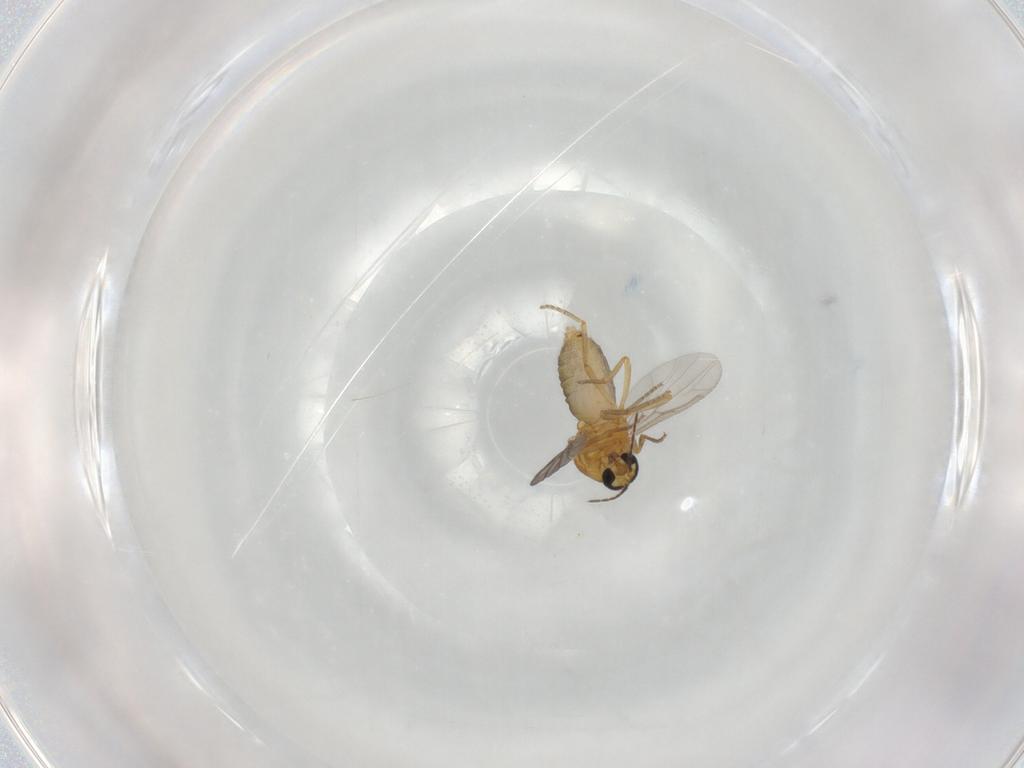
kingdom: Animalia
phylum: Arthropoda
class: Insecta
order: Diptera
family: Ceratopogonidae
